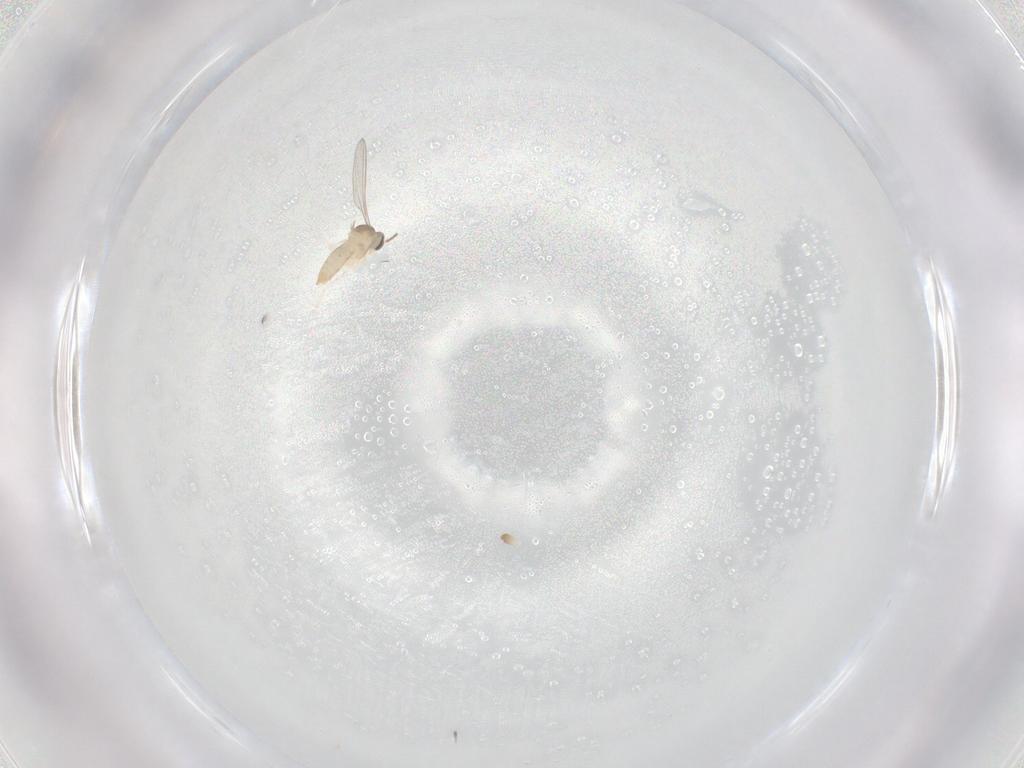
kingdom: Animalia
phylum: Arthropoda
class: Insecta
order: Diptera
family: Cecidomyiidae
